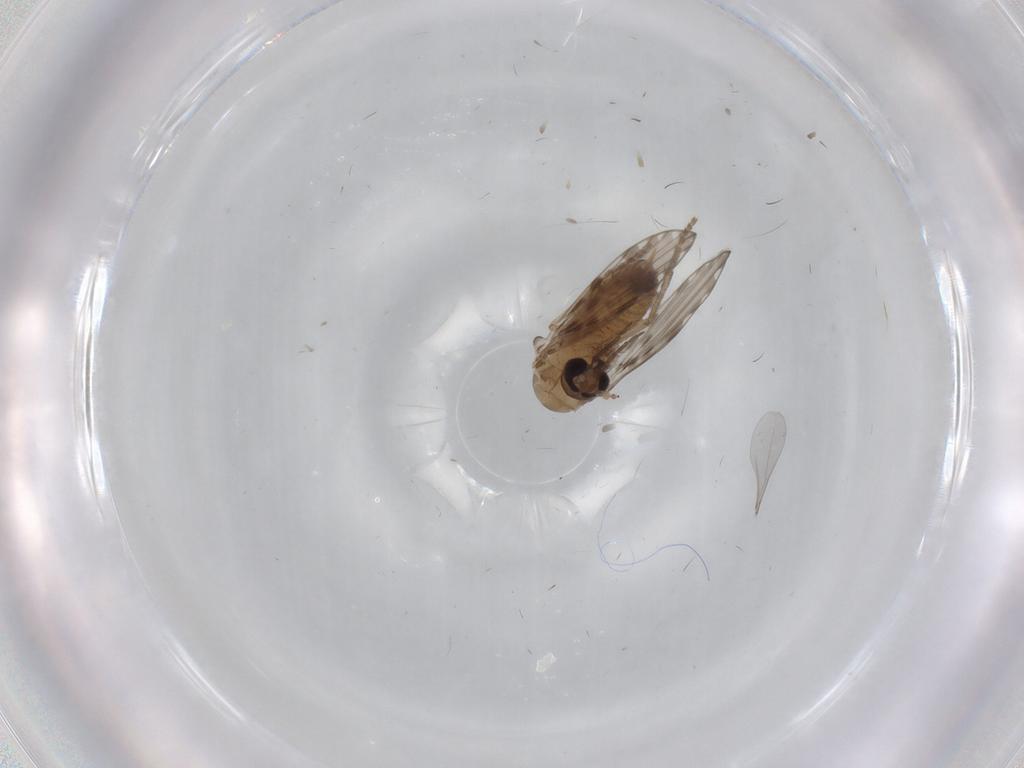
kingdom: Animalia
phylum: Arthropoda
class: Insecta
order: Diptera
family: Psychodidae
